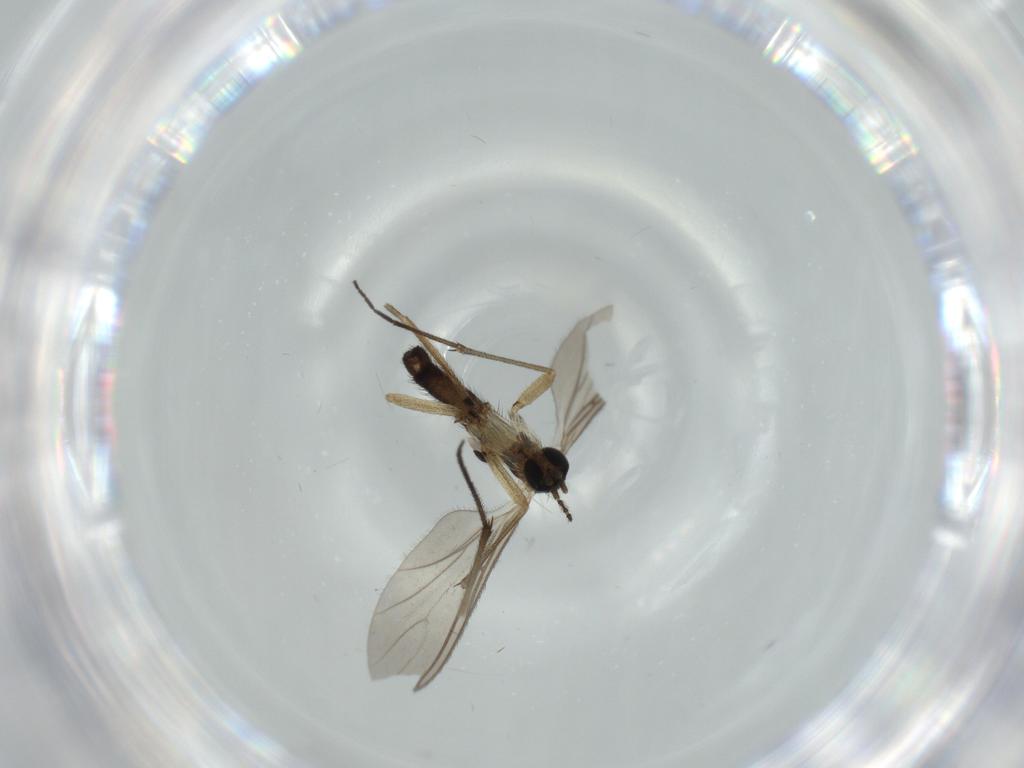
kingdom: Animalia
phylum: Arthropoda
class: Insecta
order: Diptera
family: Sciaridae
